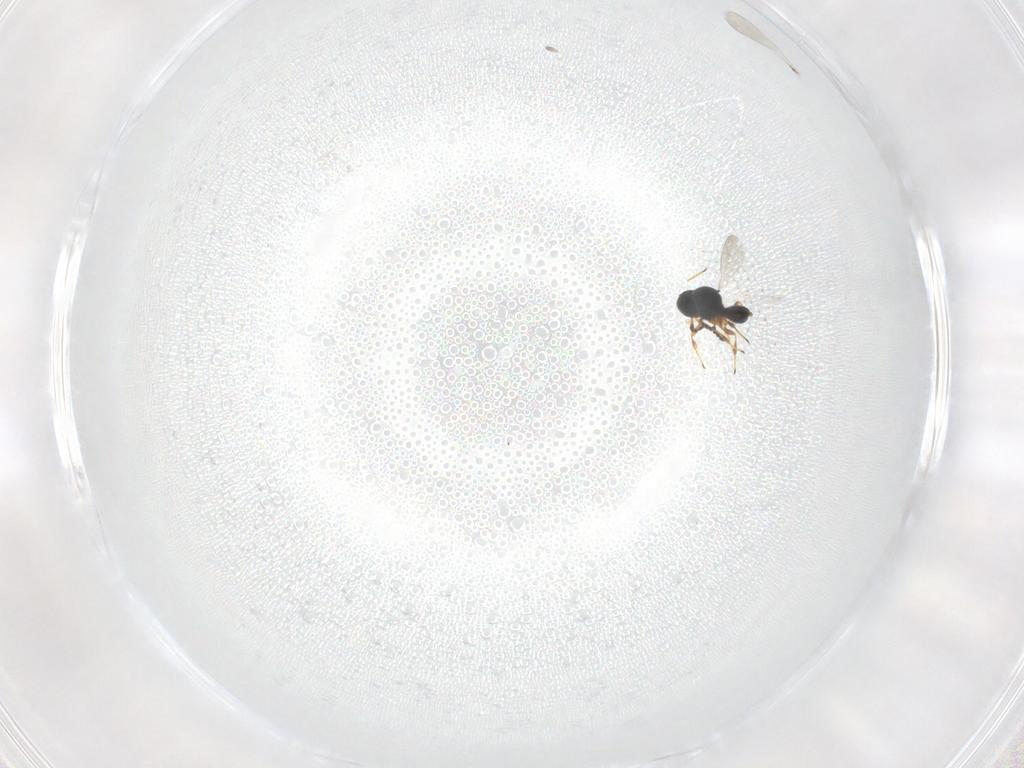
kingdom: Animalia
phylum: Arthropoda
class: Insecta
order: Hymenoptera
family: Platygastridae
